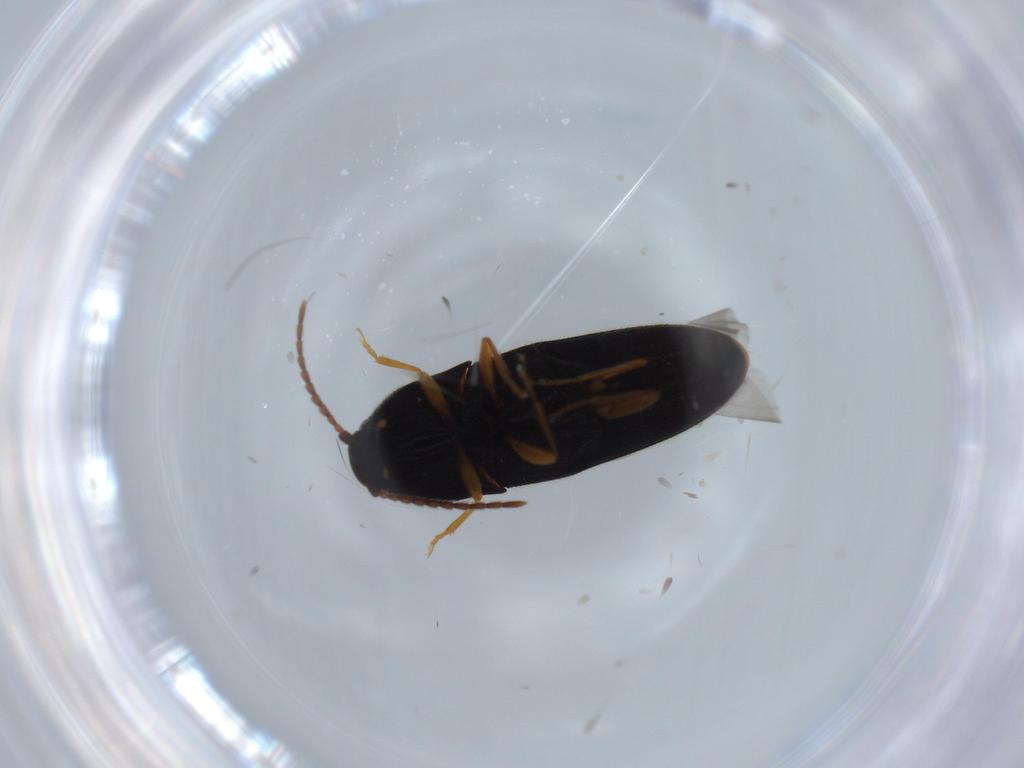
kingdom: Animalia
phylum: Arthropoda
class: Insecta
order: Coleoptera
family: Elateridae
